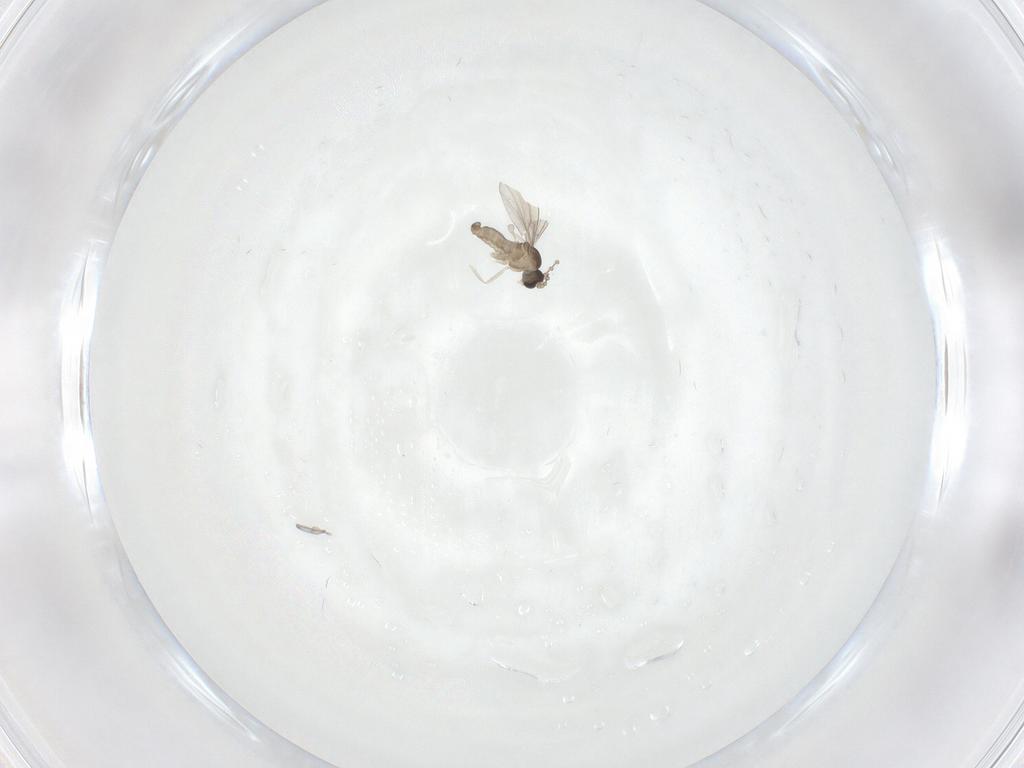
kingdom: Animalia
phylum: Arthropoda
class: Insecta
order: Diptera
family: Cecidomyiidae
